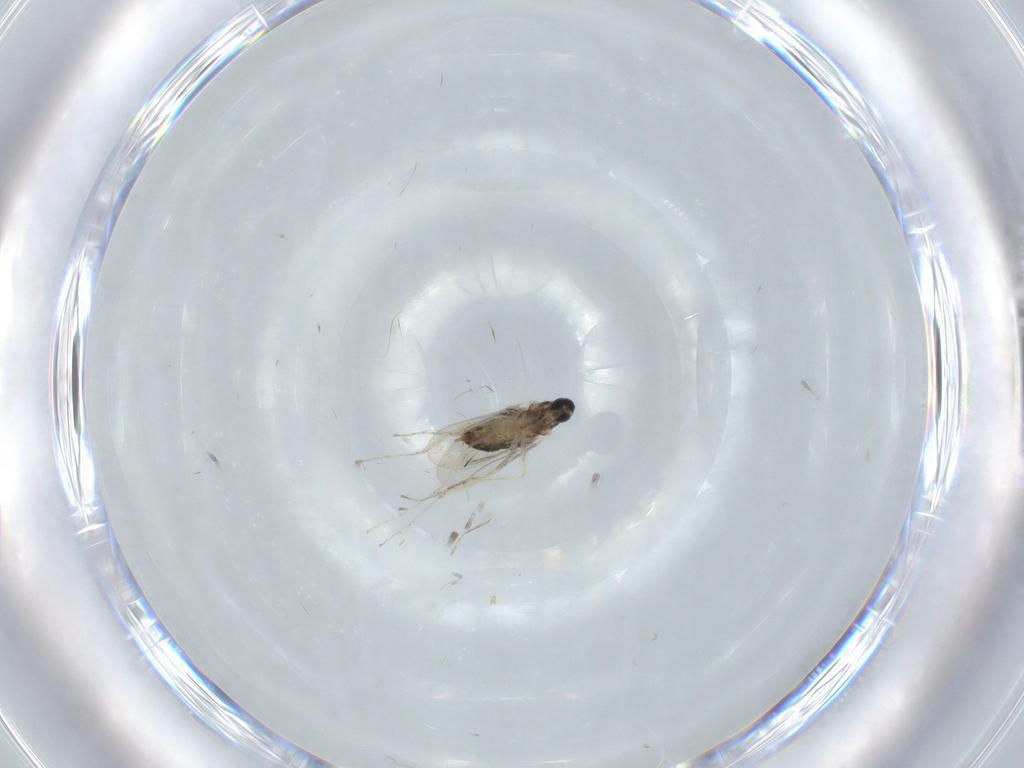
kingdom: Animalia
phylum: Arthropoda
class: Insecta
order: Diptera
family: Cecidomyiidae
